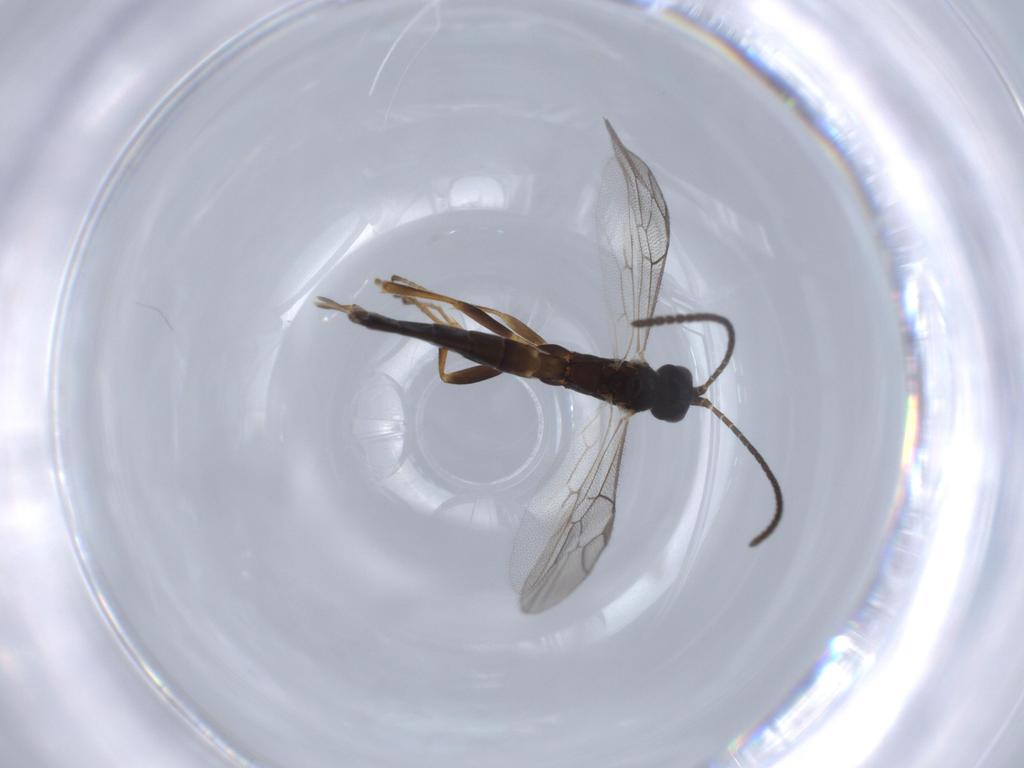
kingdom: Animalia
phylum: Arthropoda
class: Insecta
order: Hymenoptera
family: Ichneumonidae
